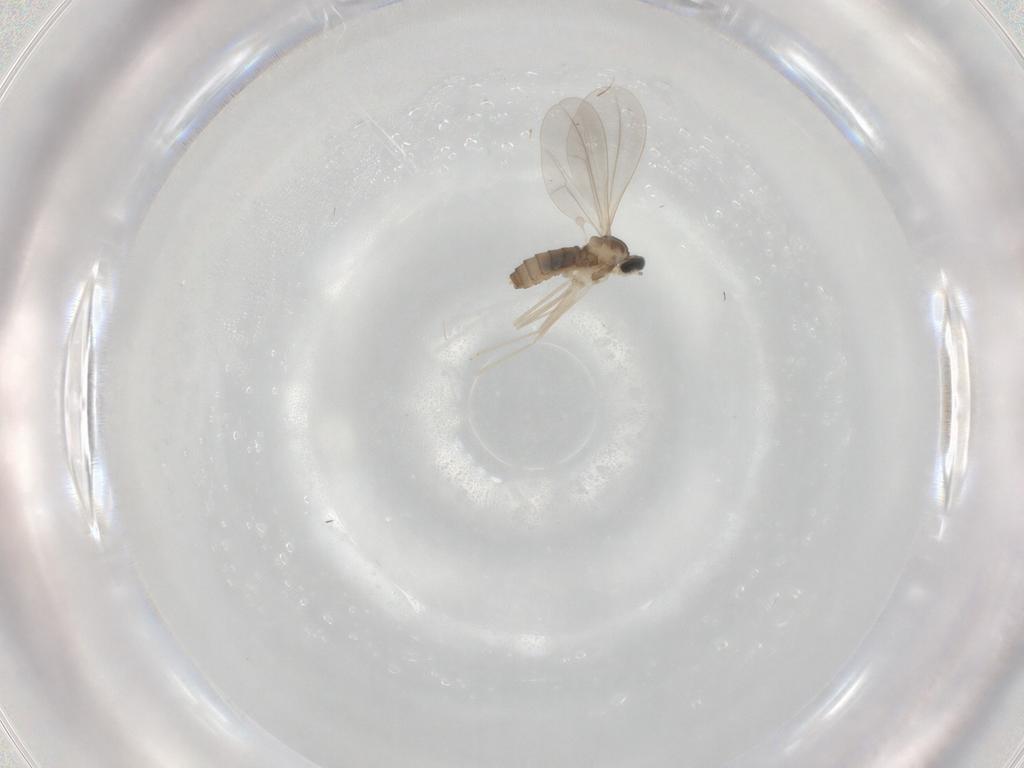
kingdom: Animalia
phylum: Arthropoda
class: Insecta
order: Diptera
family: Cecidomyiidae
